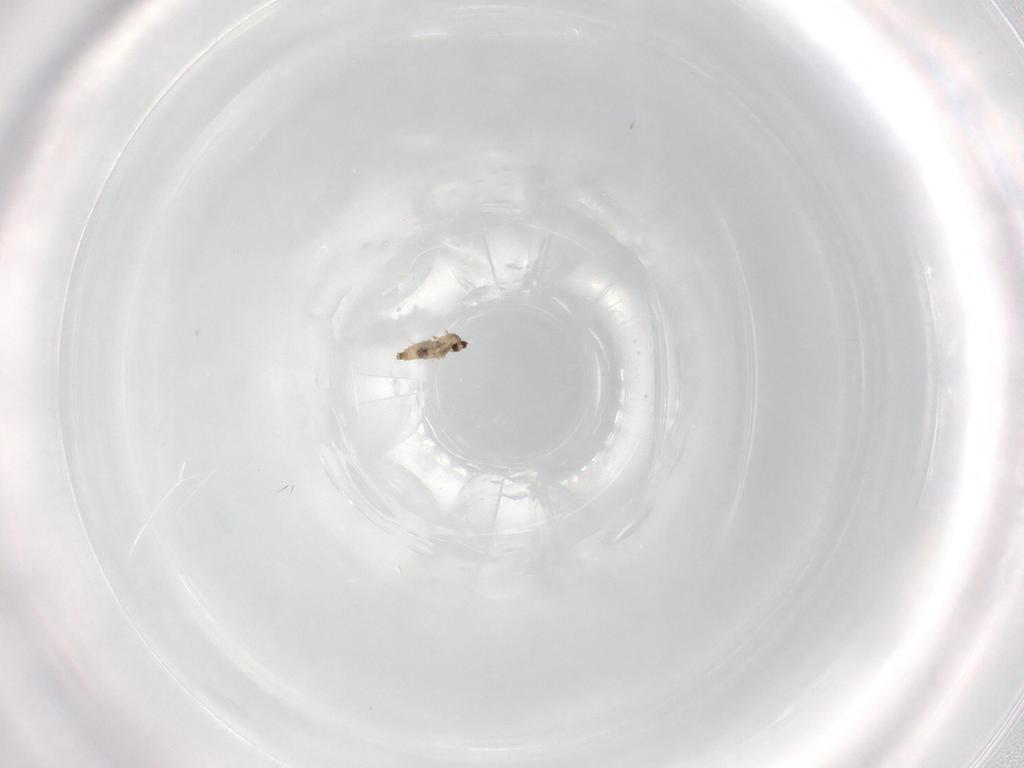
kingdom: Animalia
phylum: Arthropoda
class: Insecta
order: Diptera
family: Cecidomyiidae
